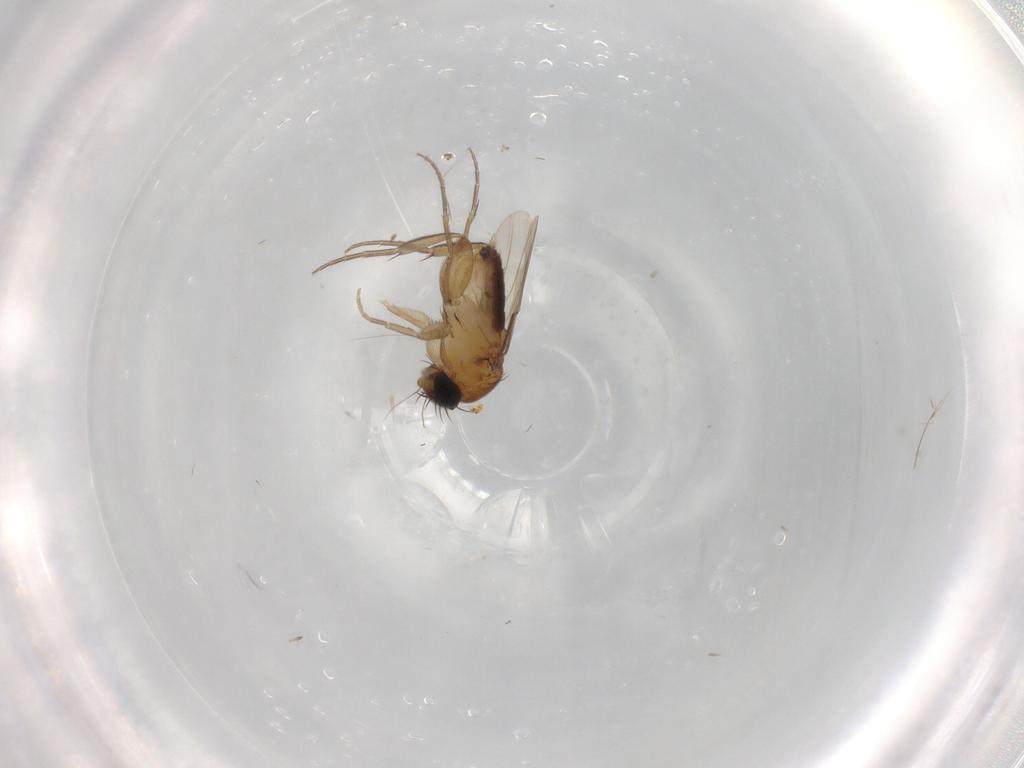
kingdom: Animalia
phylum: Arthropoda
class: Insecta
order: Diptera
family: Phoridae
